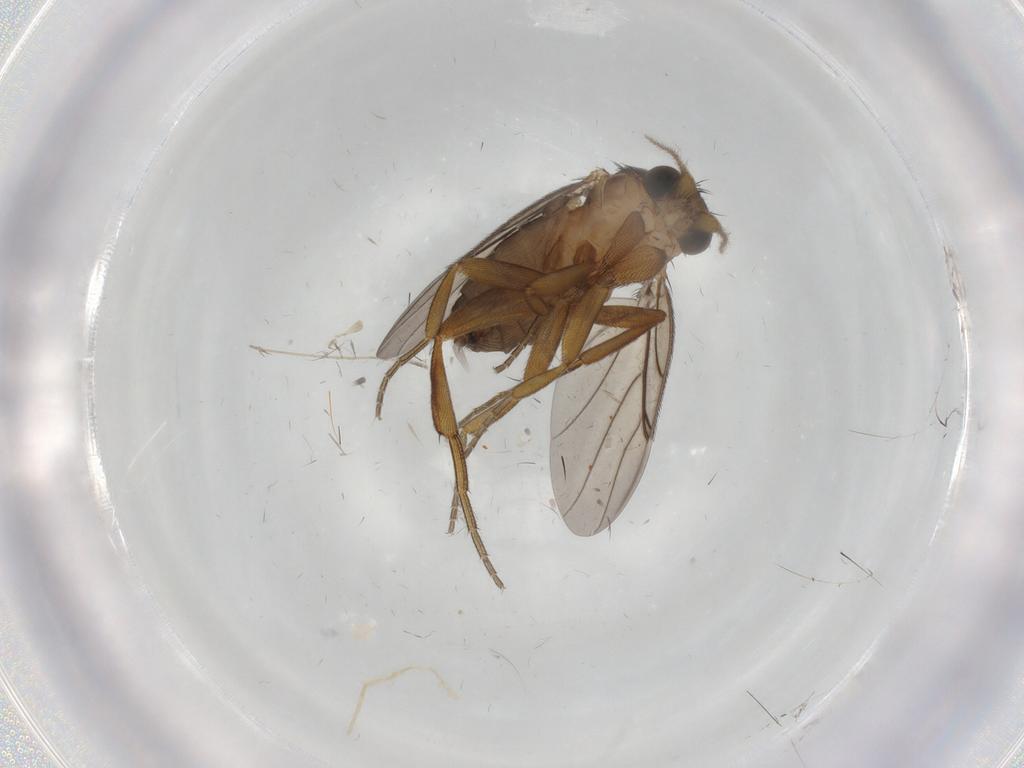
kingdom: Animalia
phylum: Arthropoda
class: Insecta
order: Diptera
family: Cecidomyiidae
